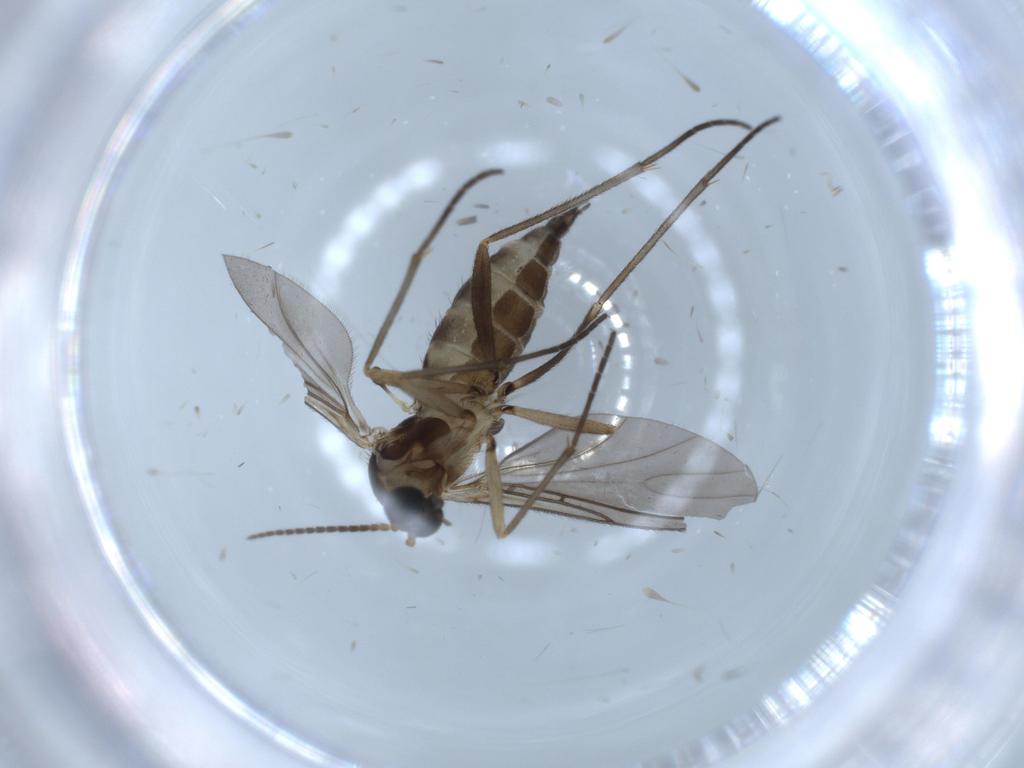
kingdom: Animalia
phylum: Arthropoda
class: Insecta
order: Diptera
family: Sciaridae
